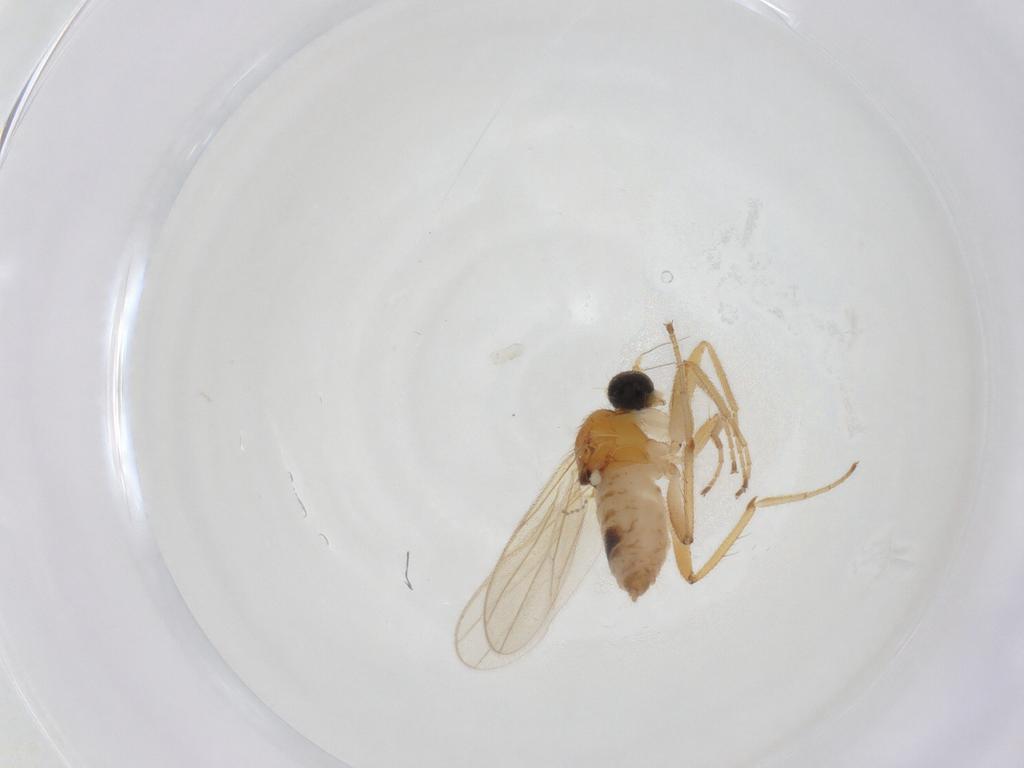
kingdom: Animalia
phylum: Arthropoda
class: Insecta
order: Diptera
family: Hybotidae
